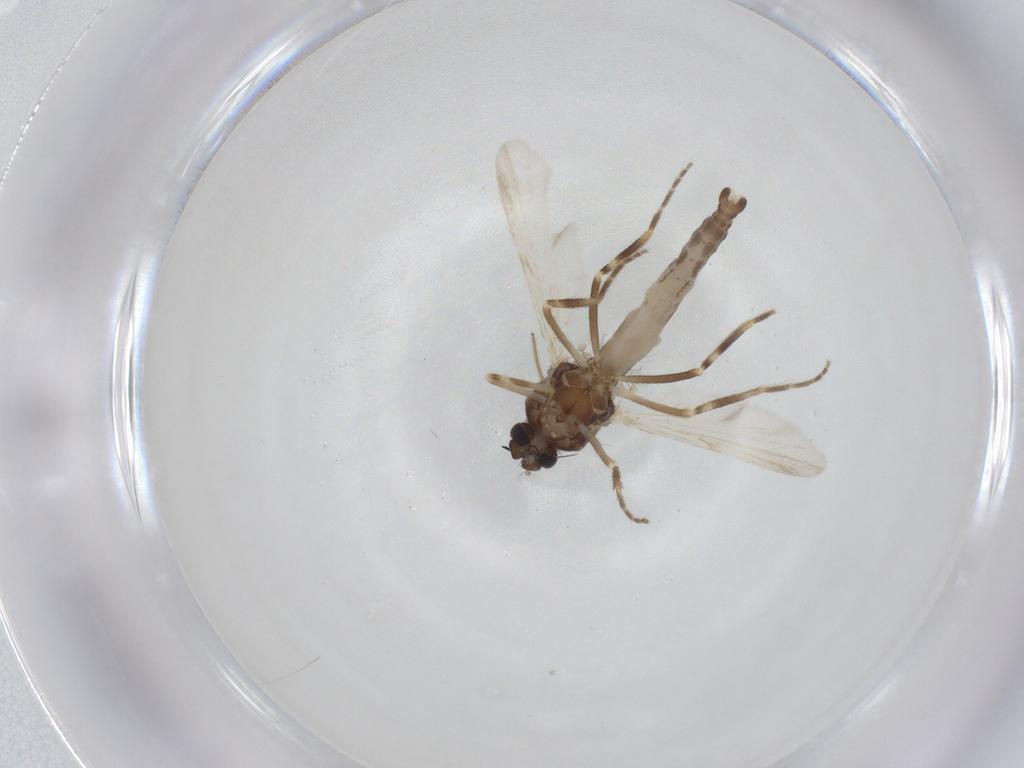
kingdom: Animalia
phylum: Arthropoda
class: Insecta
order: Diptera
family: Ceratopogonidae
